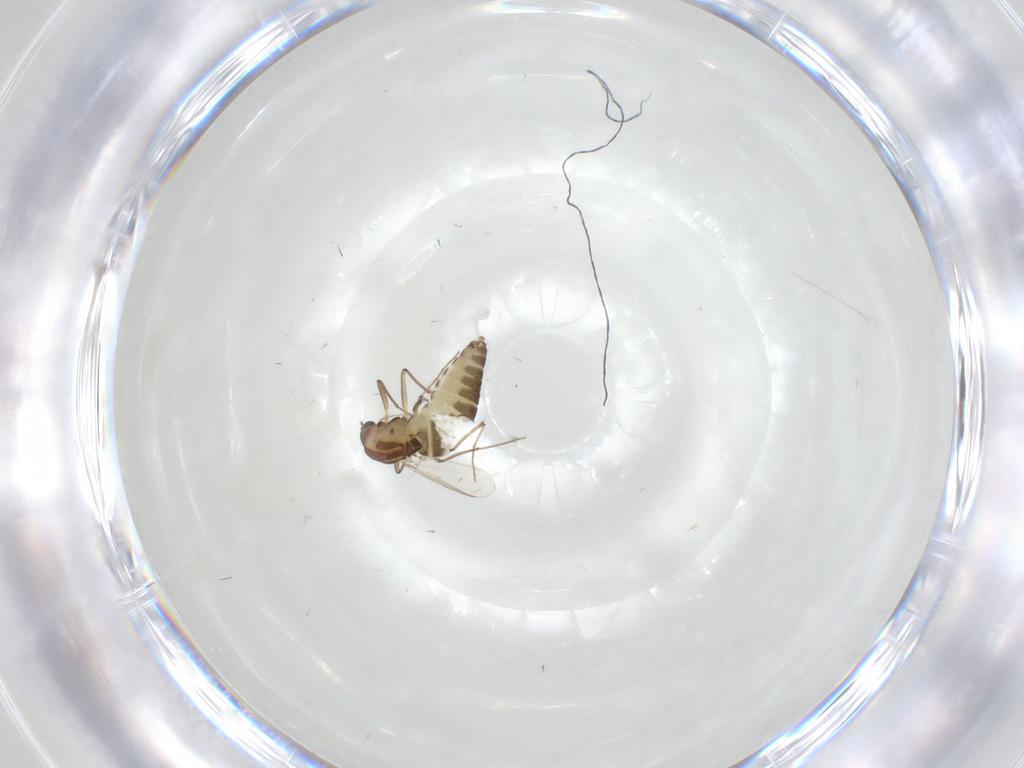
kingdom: Animalia
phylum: Arthropoda
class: Insecta
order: Diptera
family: Chironomidae
